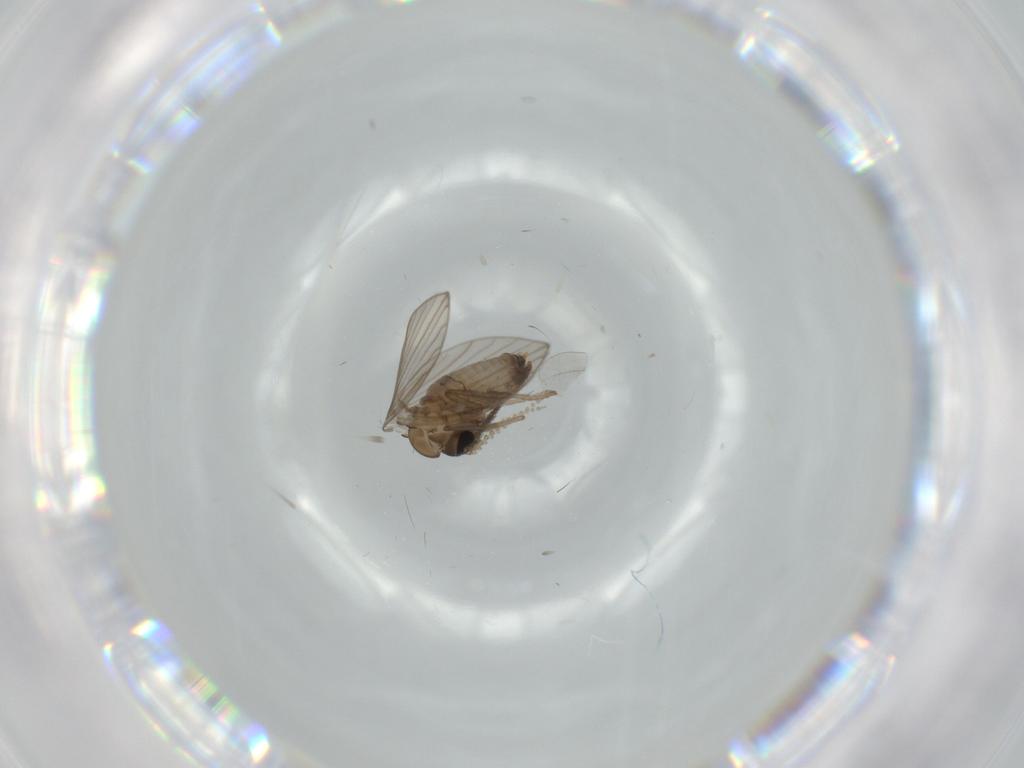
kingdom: Animalia
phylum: Arthropoda
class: Insecta
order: Diptera
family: Psychodidae
